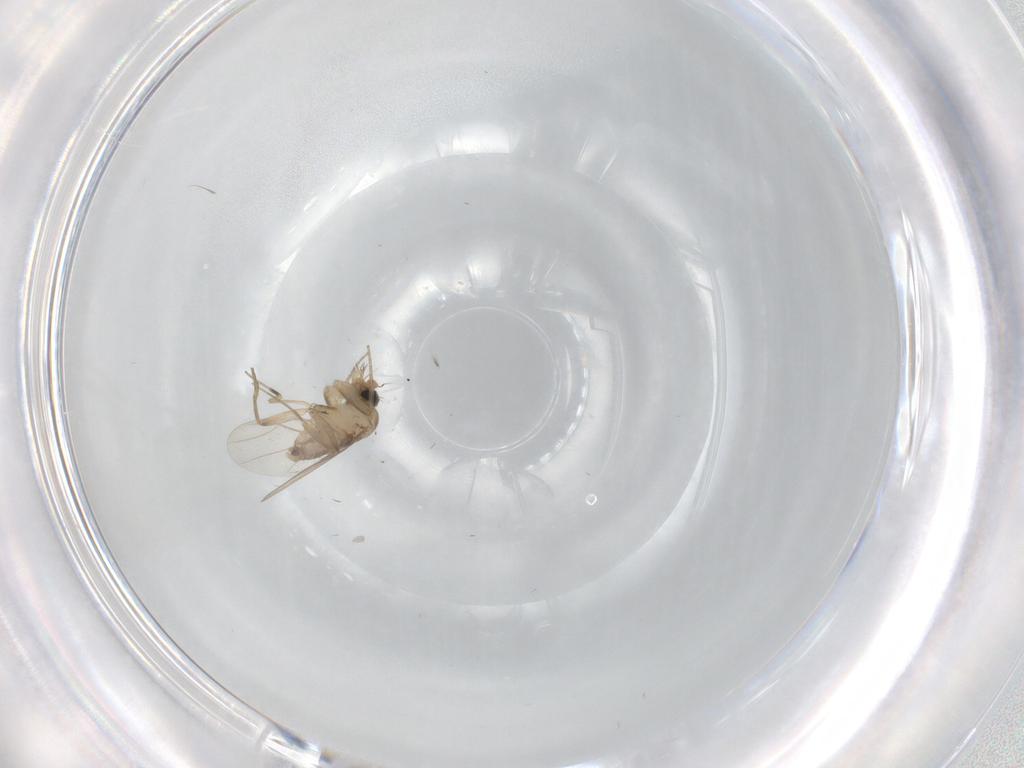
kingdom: Animalia
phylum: Arthropoda
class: Insecta
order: Diptera
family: Phoridae
